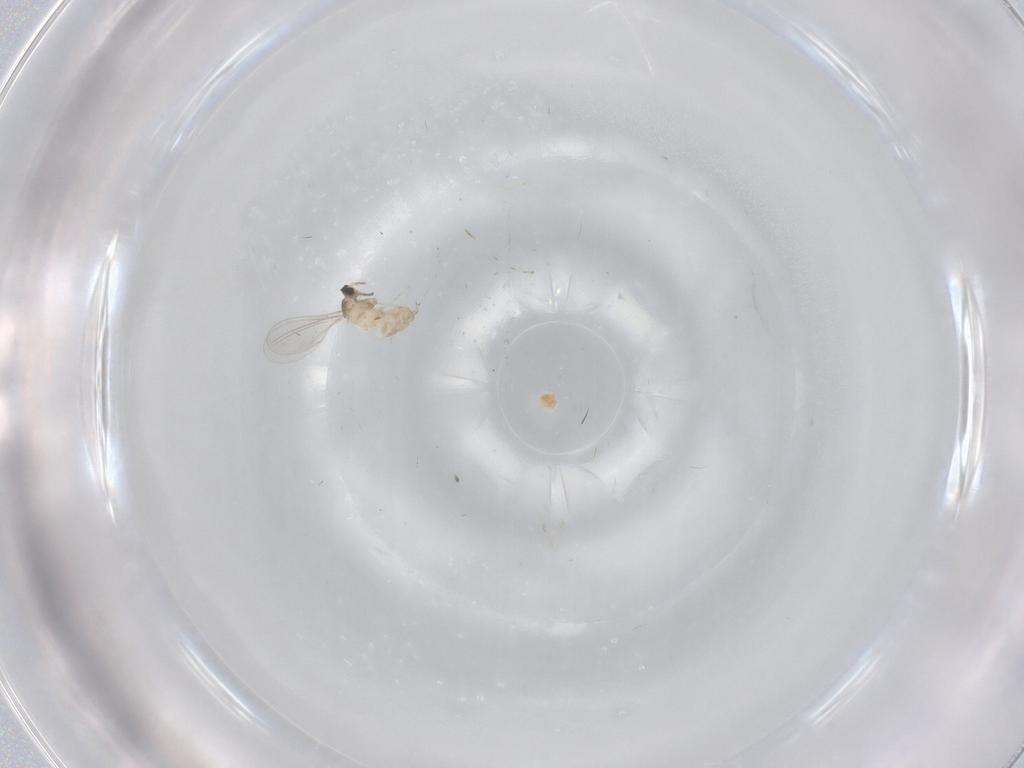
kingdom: Animalia
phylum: Arthropoda
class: Insecta
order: Diptera
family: Cecidomyiidae
